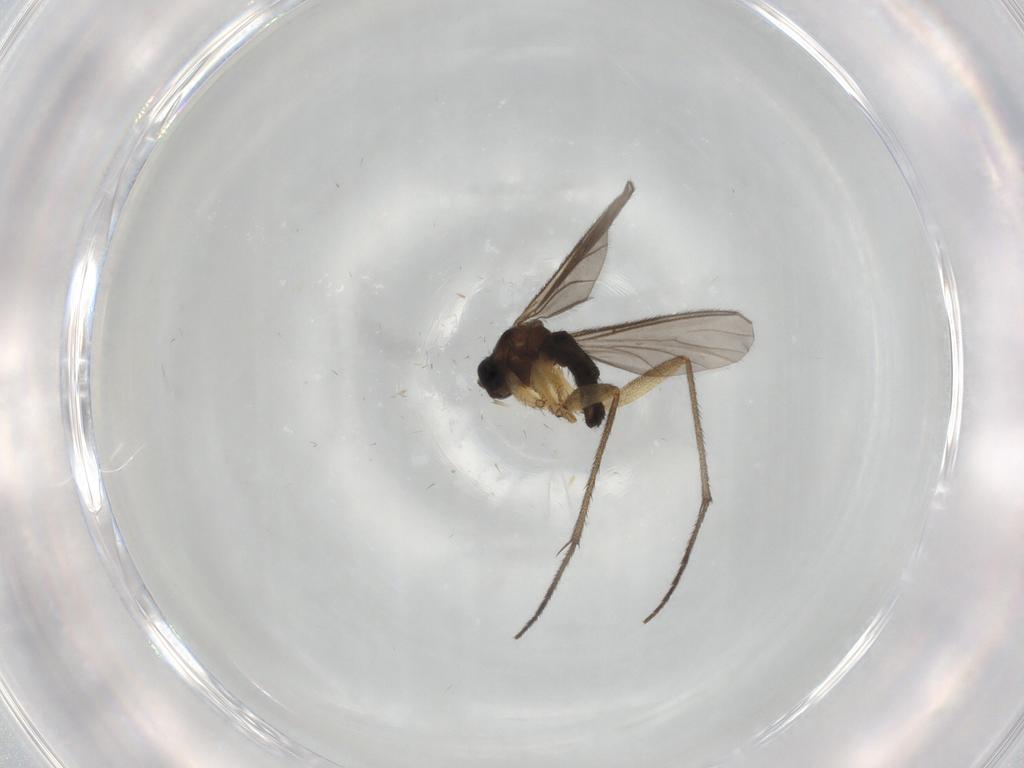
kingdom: Animalia
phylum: Arthropoda
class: Insecta
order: Diptera
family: Sciaridae
